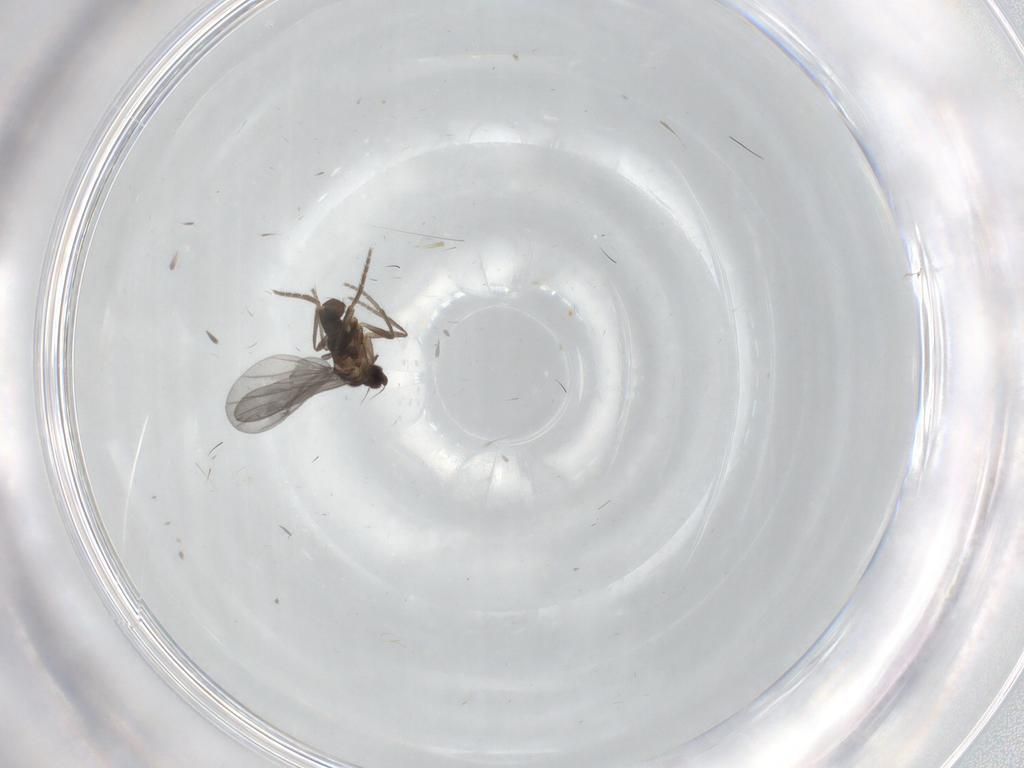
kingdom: Animalia
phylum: Arthropoda
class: Insecta
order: Diptera
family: Phoridae
